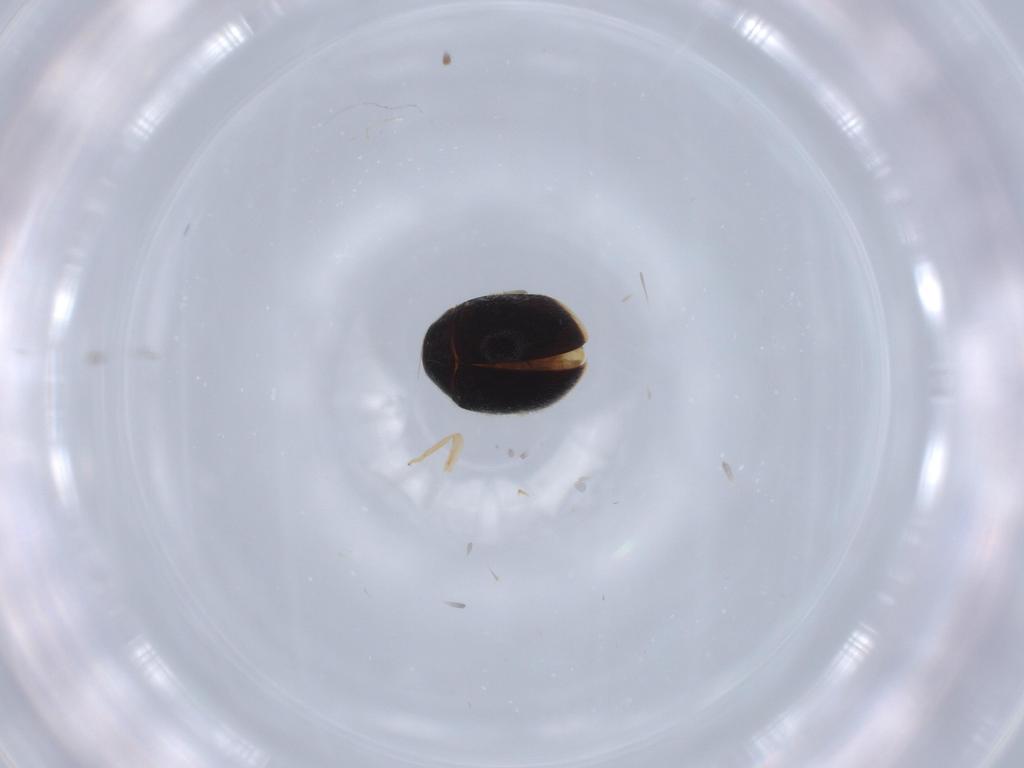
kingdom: Animalia
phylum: Arthropoda
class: Insecta
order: Coleoptera
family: Coccinellidae
